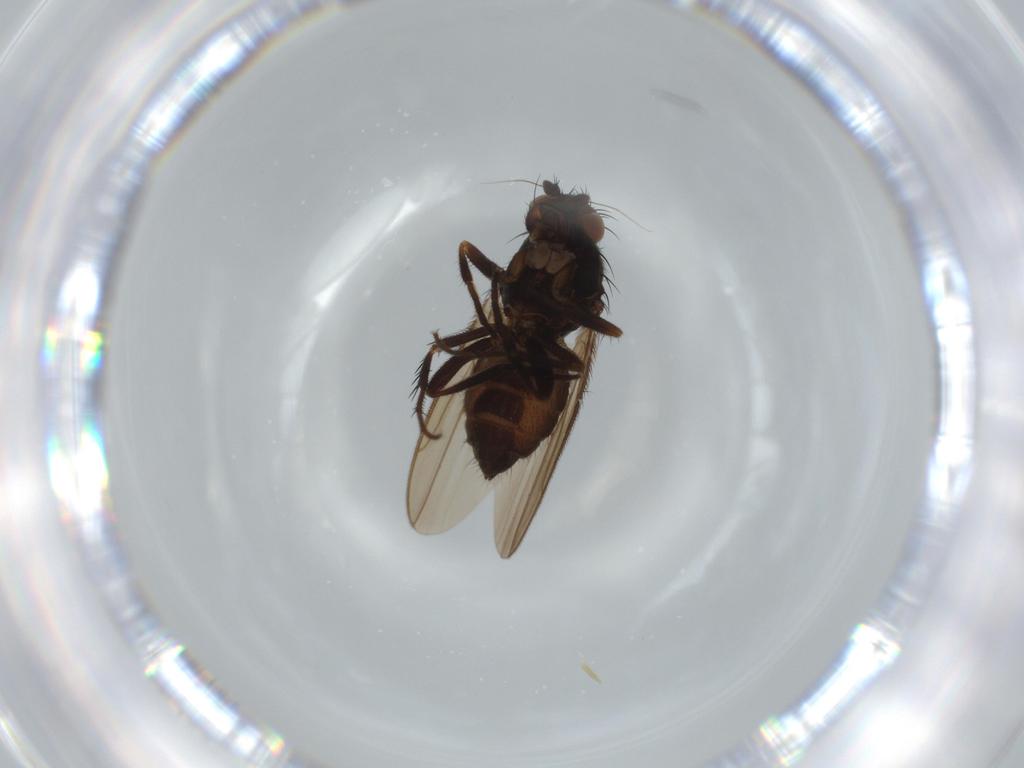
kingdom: Animalia
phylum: Arthropoda
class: Insecta
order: Diptera
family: Sphaeroceridae
